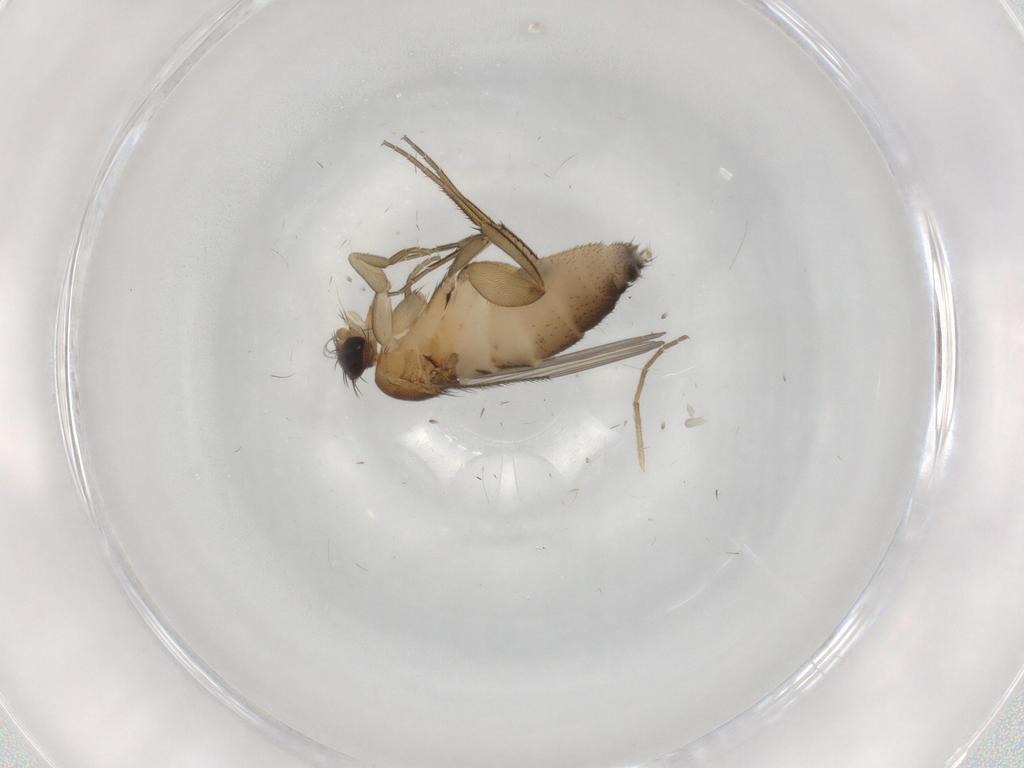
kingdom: Animalia
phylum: Arthropoda
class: Insecta
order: Diptera
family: Phoridae
